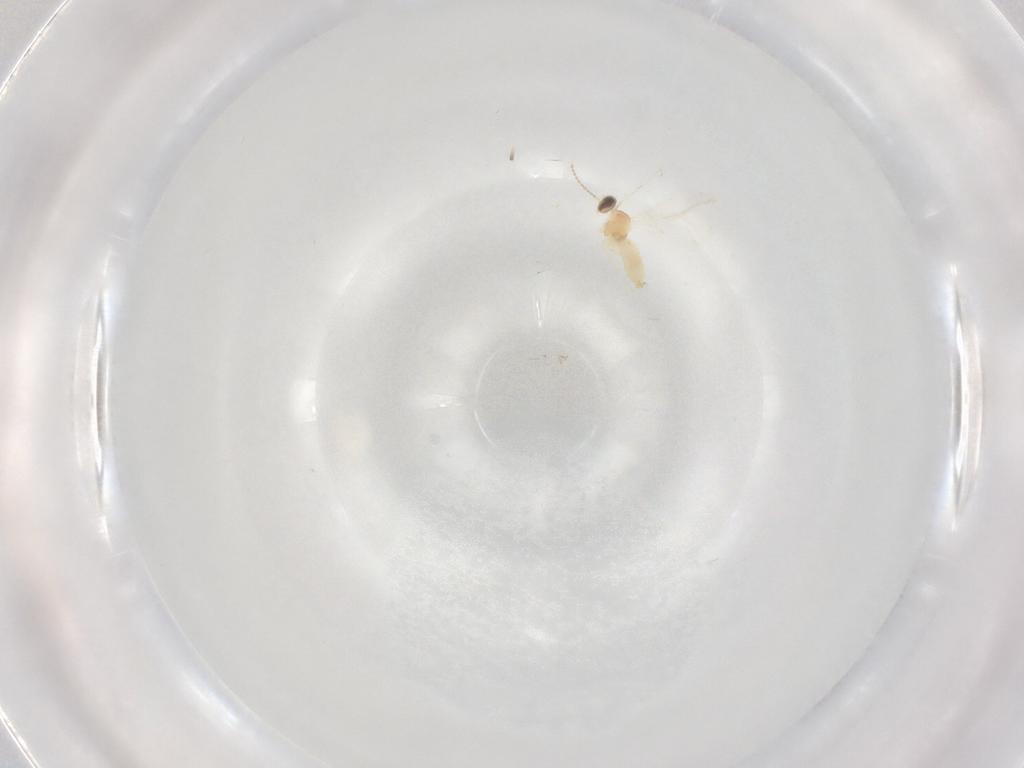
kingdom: Animalia
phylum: Arthropoda
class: Insecta
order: Diptera
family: Cecidomyiidae
